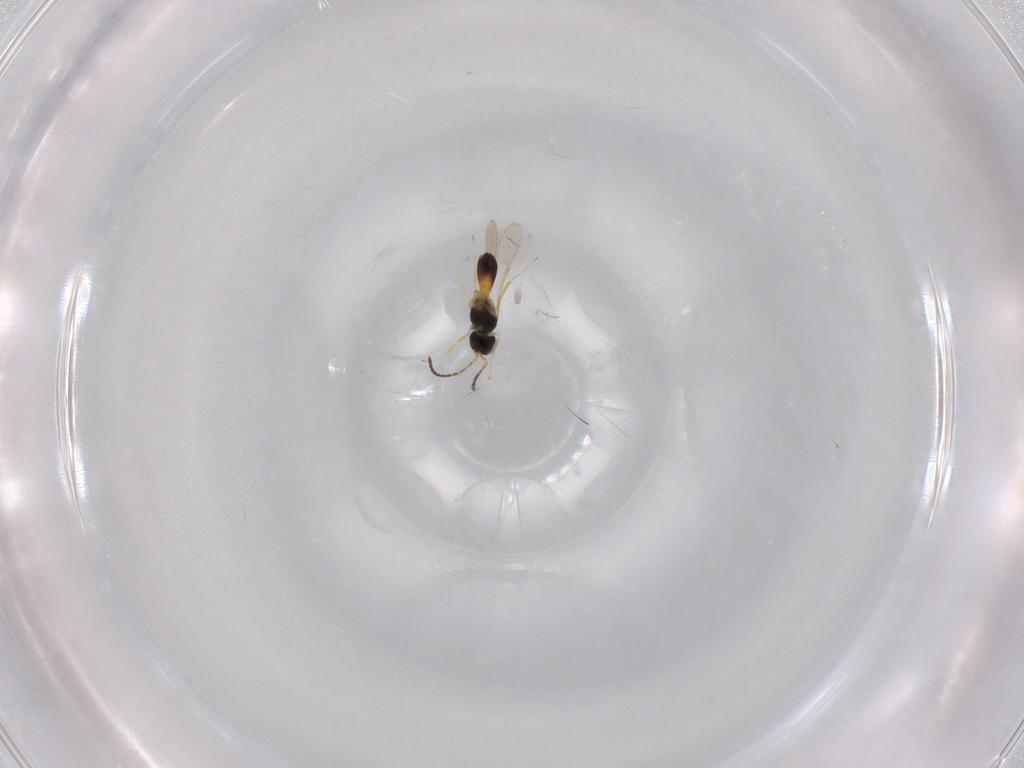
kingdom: Animalia
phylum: Arthropoda
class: Insecta
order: Hymenoptera
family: Scelionidae
